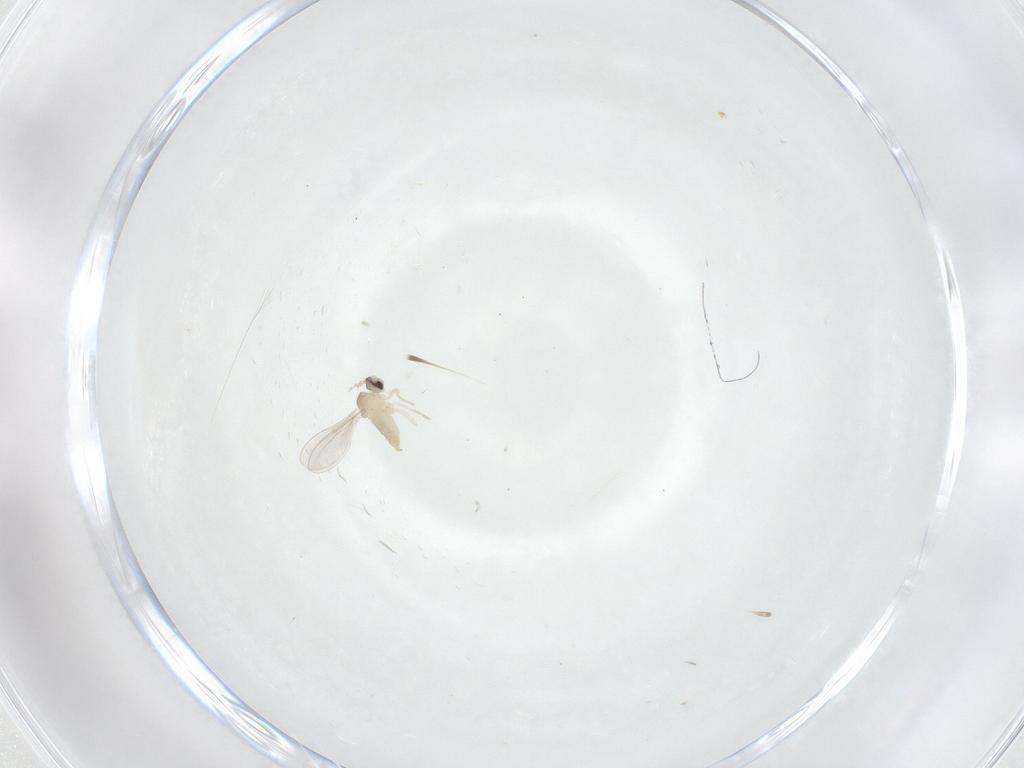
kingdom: Animalia
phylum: Arthropoda
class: Insecta
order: Diptera
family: Cecidomyiidae
